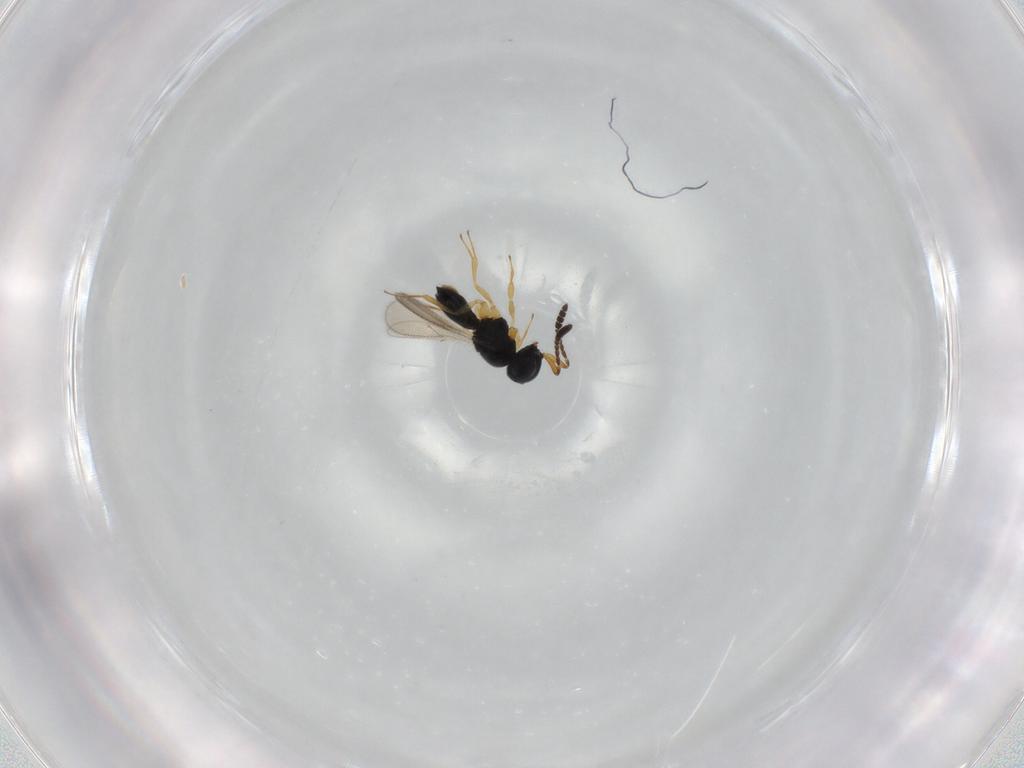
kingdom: Animalia
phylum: Arthropoda
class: Insecta
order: Hymenoptera
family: Scelionidae
